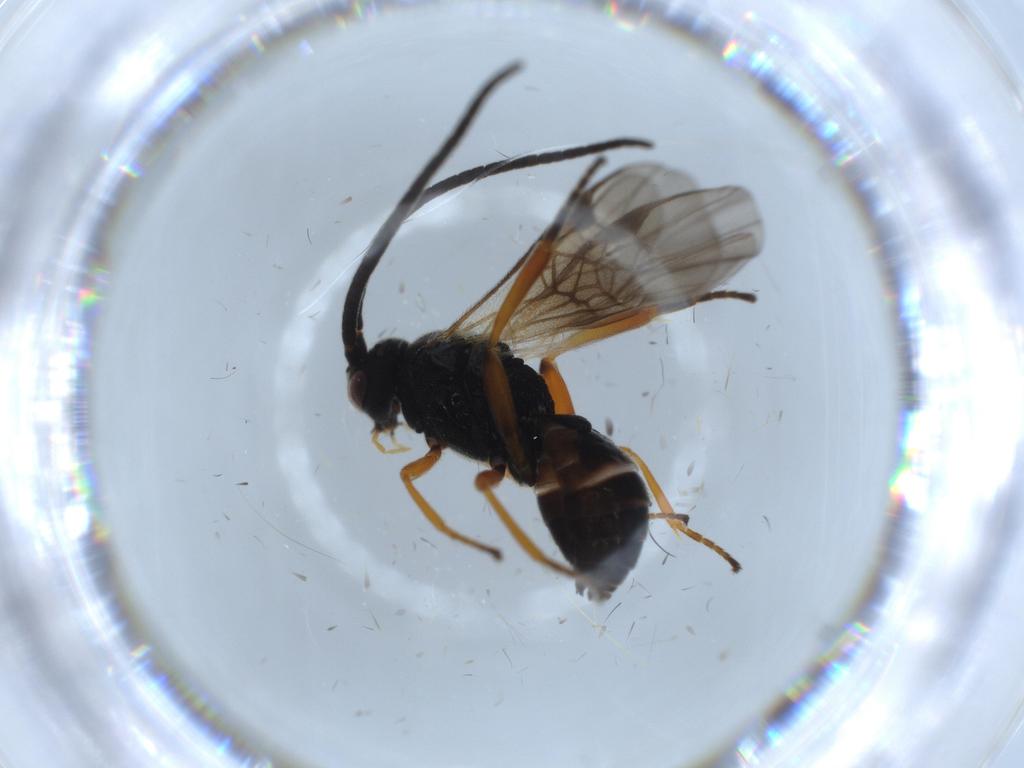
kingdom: Animalia
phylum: Arthropoda
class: Insecta
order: Hymenoptera
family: Braconidae
